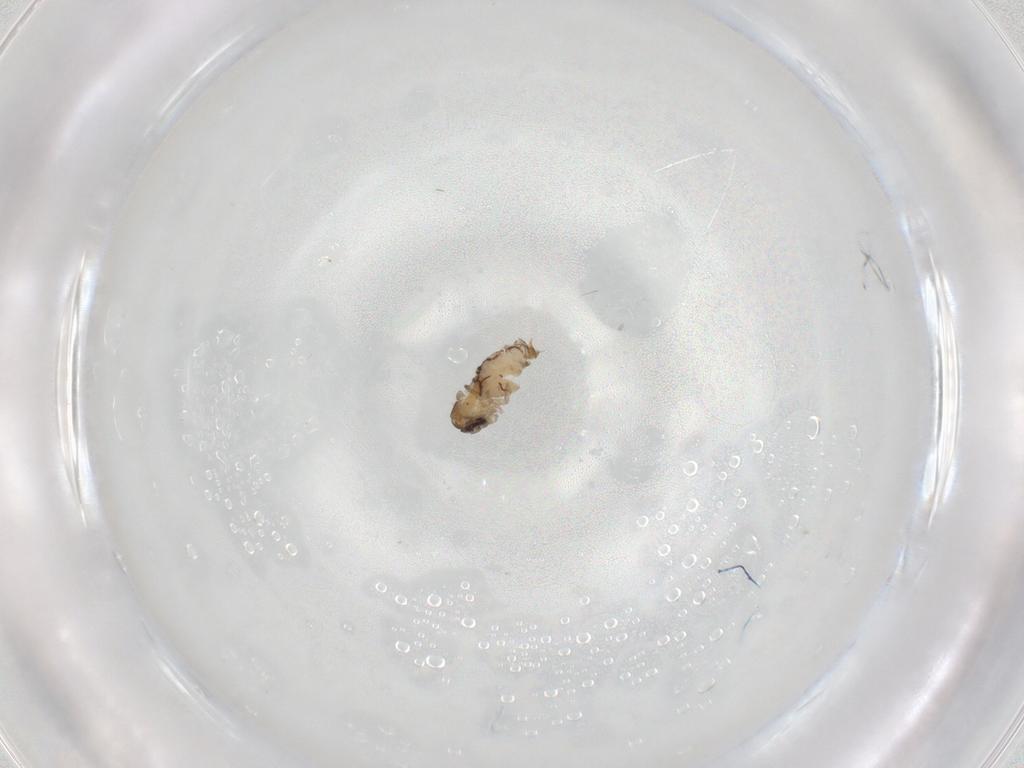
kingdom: Animalia
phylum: Arthropoda
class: Insecta
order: Diptera
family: Psychodidae
